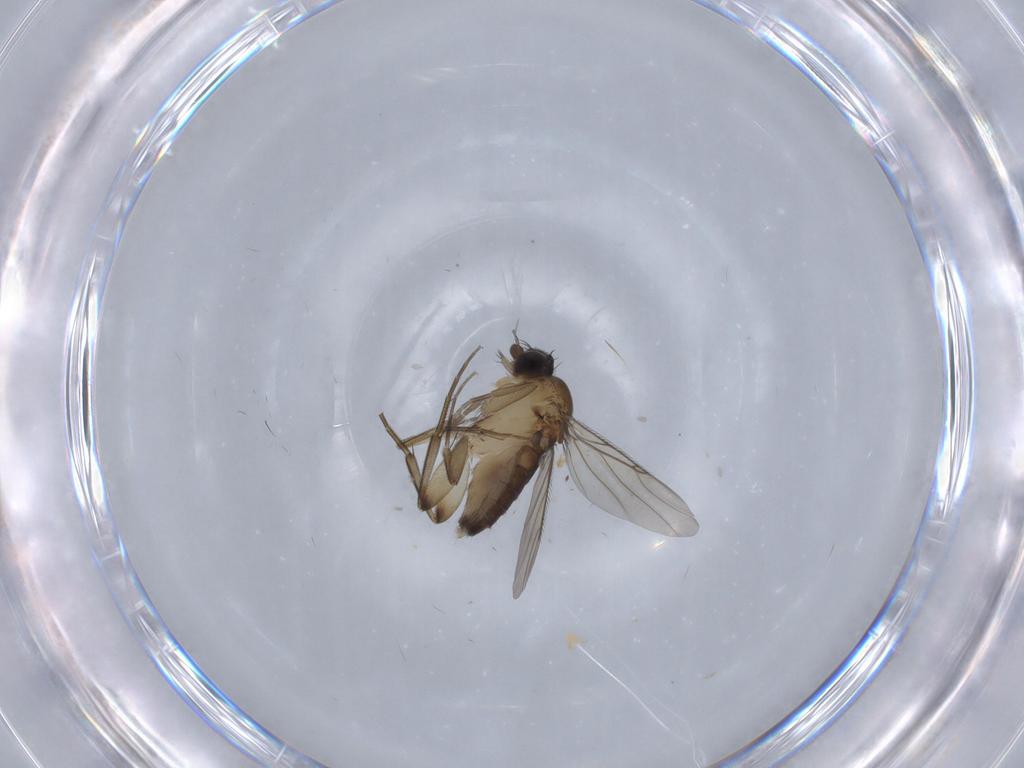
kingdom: Animalia
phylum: Arthropoda
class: Insecta
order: Diptera
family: Phoridae
